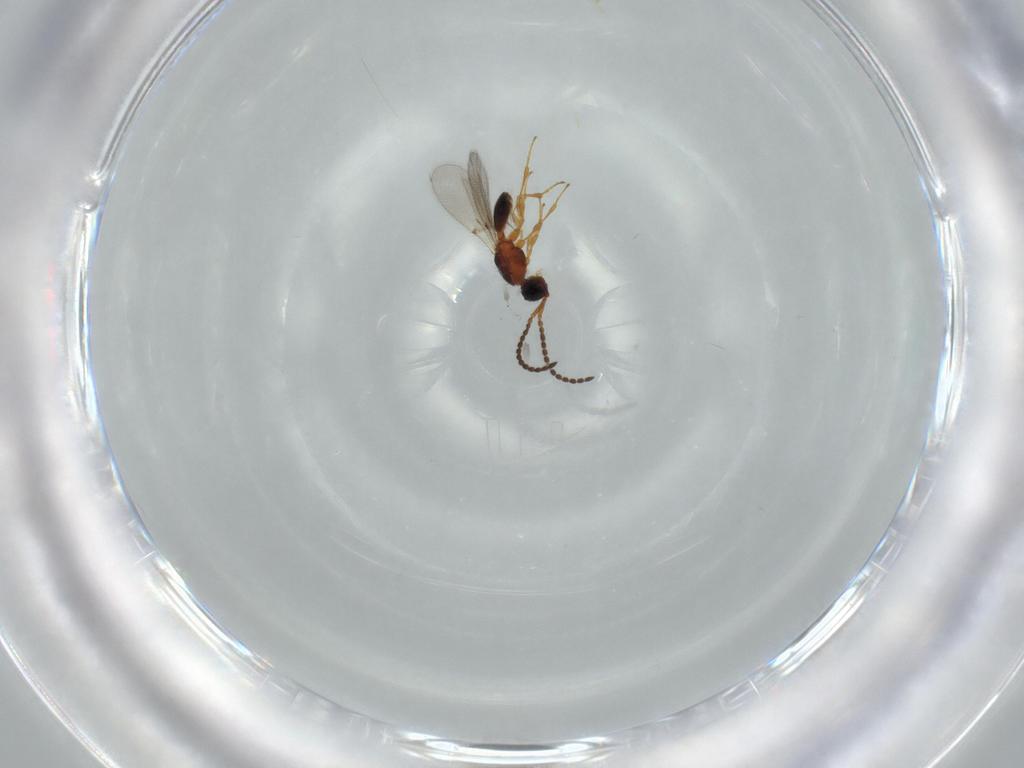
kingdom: Animalia
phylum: Arthropoda
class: Insecta
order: Hymenoptera
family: Diapriidae
